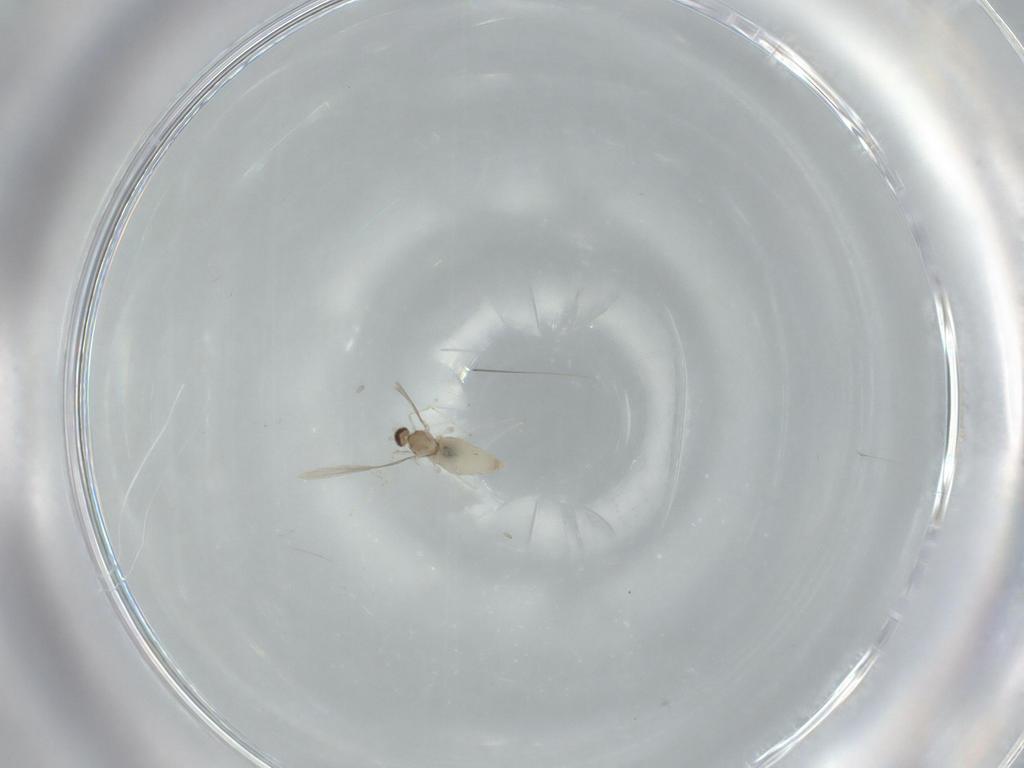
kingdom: Animalia
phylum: Arthropoda
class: Insecta
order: Diptera
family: Cecidomyiidae
